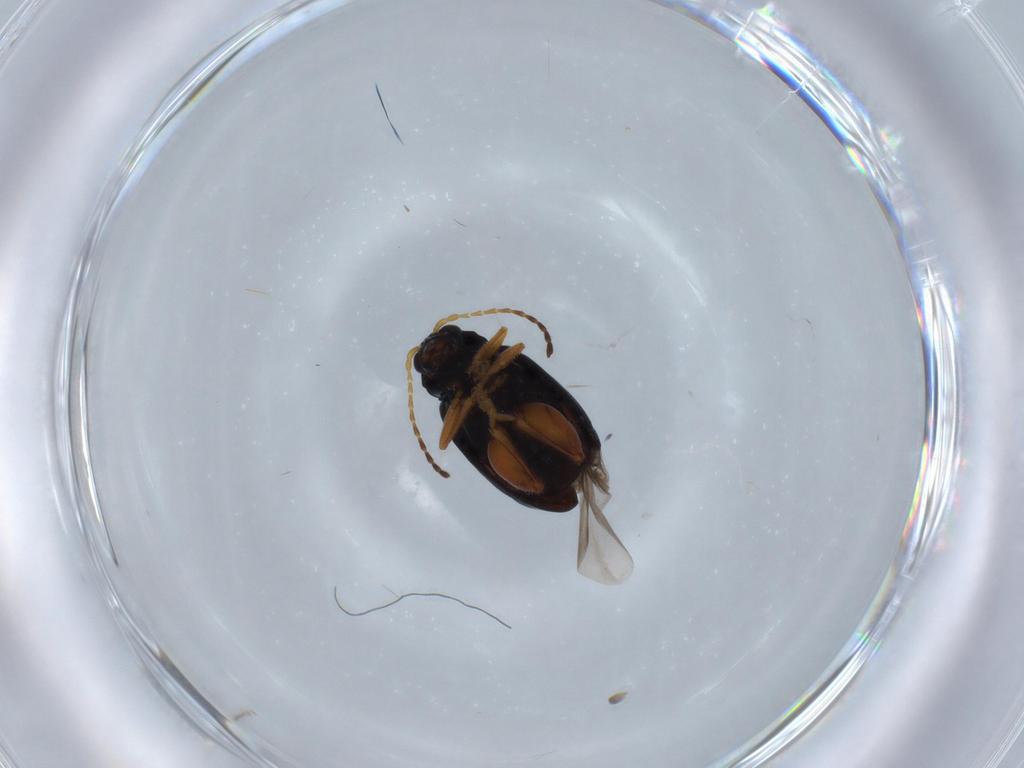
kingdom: Animalia
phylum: Arthropoda
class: Insecta
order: Coleoptera
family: Chrysomelidae
